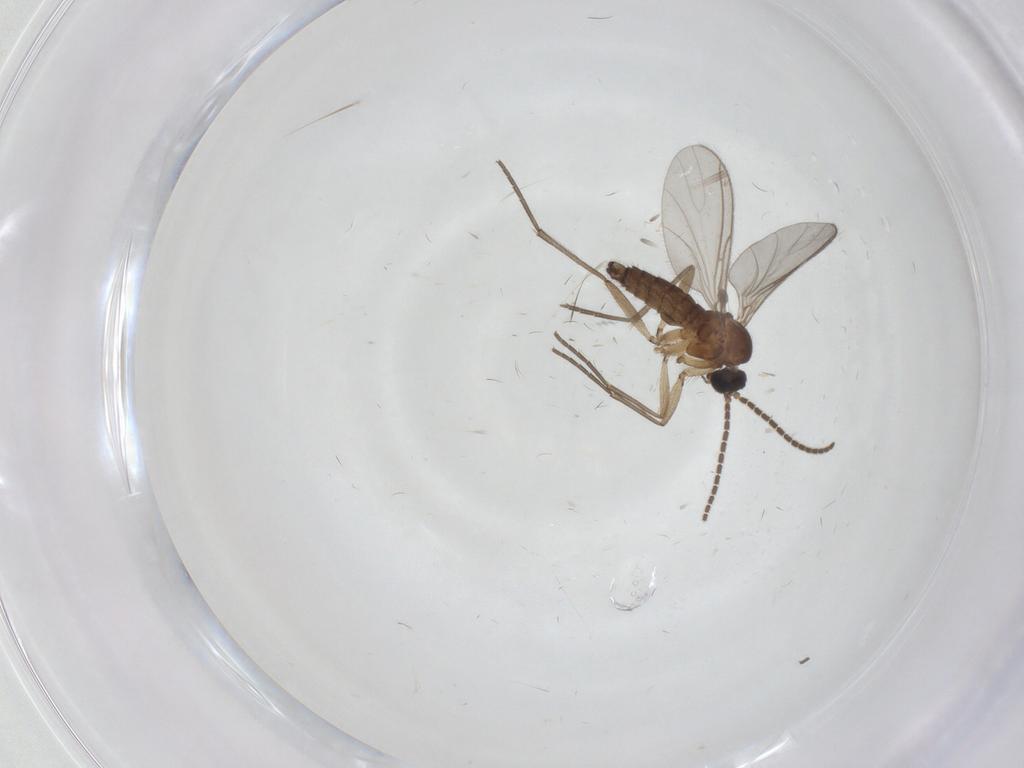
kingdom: Animalia
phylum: Arthropoda
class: Insecta
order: Diptera
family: Sciaridae
